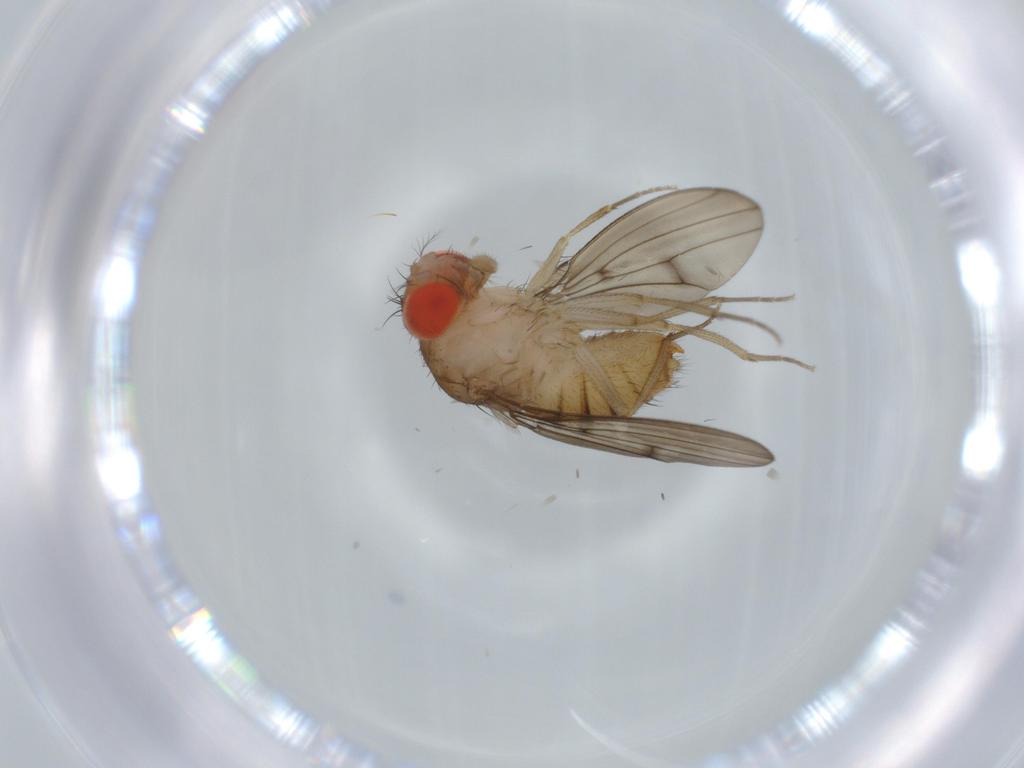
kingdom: Animalia
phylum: Arthropoda
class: Insecta
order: Diptera
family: Drosophilidae
